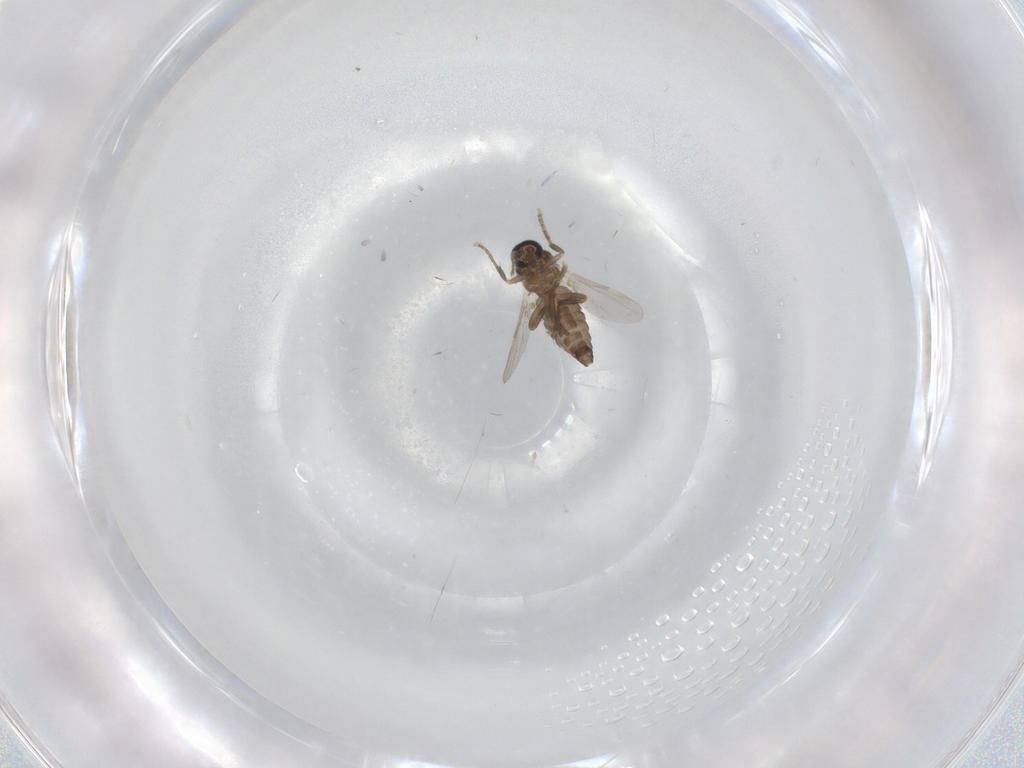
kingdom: Animalia
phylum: Arthropoda
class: Insecta
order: Diptera
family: Ceratopogonidae
